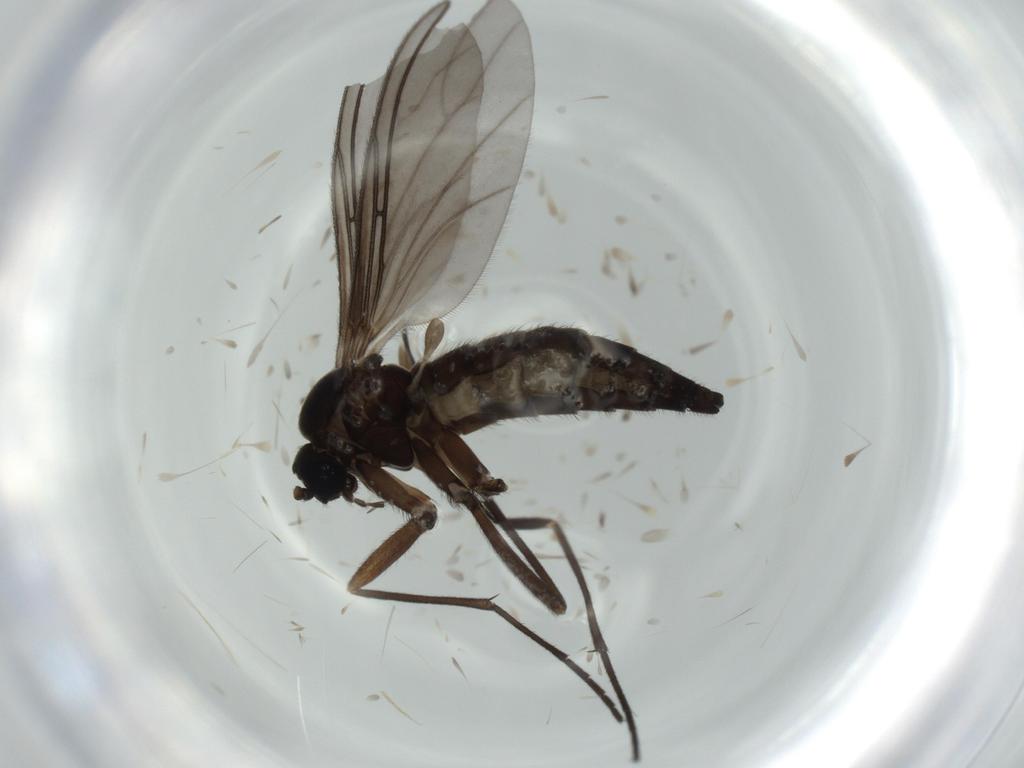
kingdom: Animalia
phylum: Arthropoda
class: Insecta
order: Diptera
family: Sciaridae
